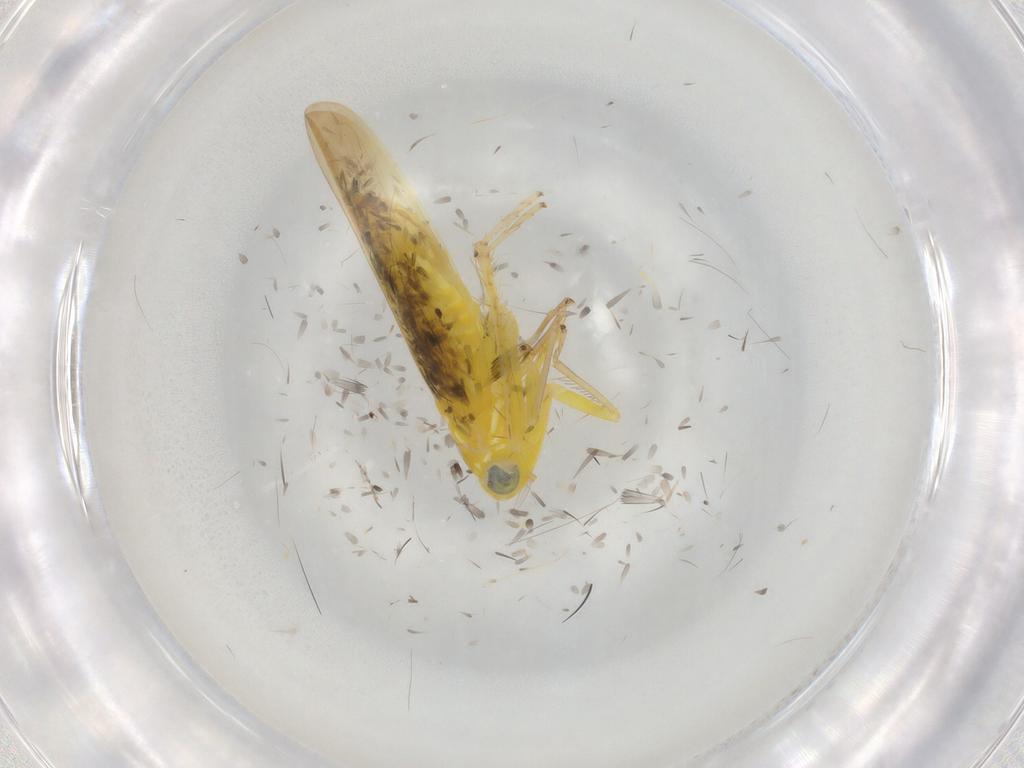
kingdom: Animalia
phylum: Arthropoda
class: Insecta
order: Hemiptera
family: Cicadellidae
